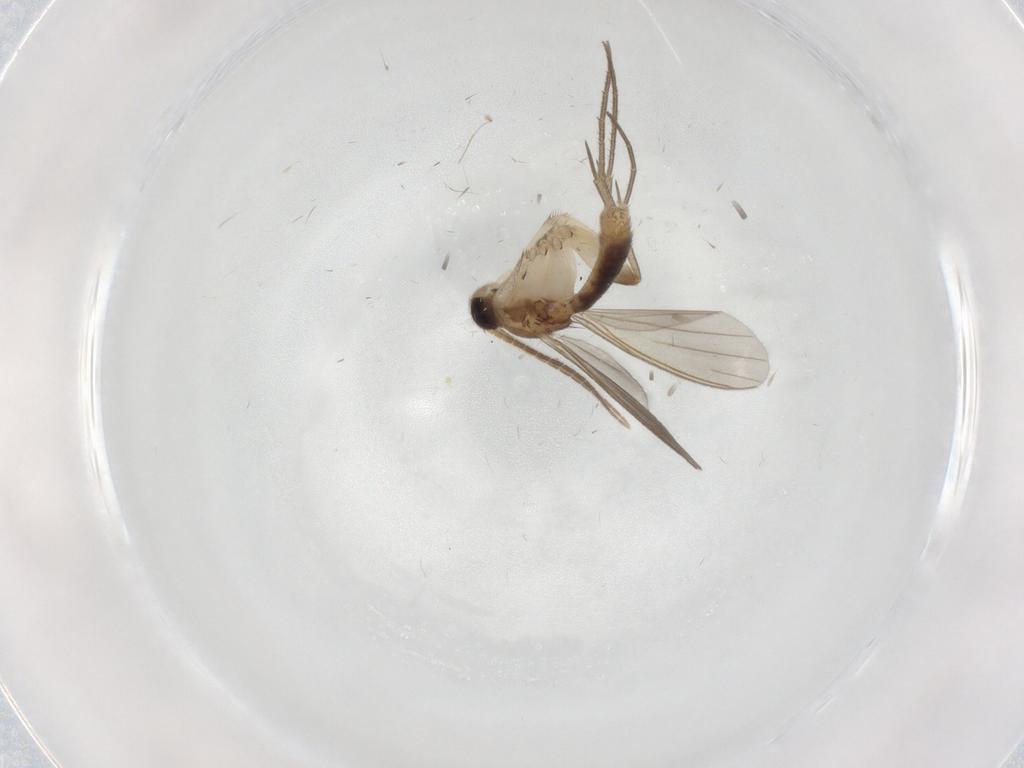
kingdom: Animalia
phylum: Arthropoda
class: Insecta
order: Diptera
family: Mycetophilidae
